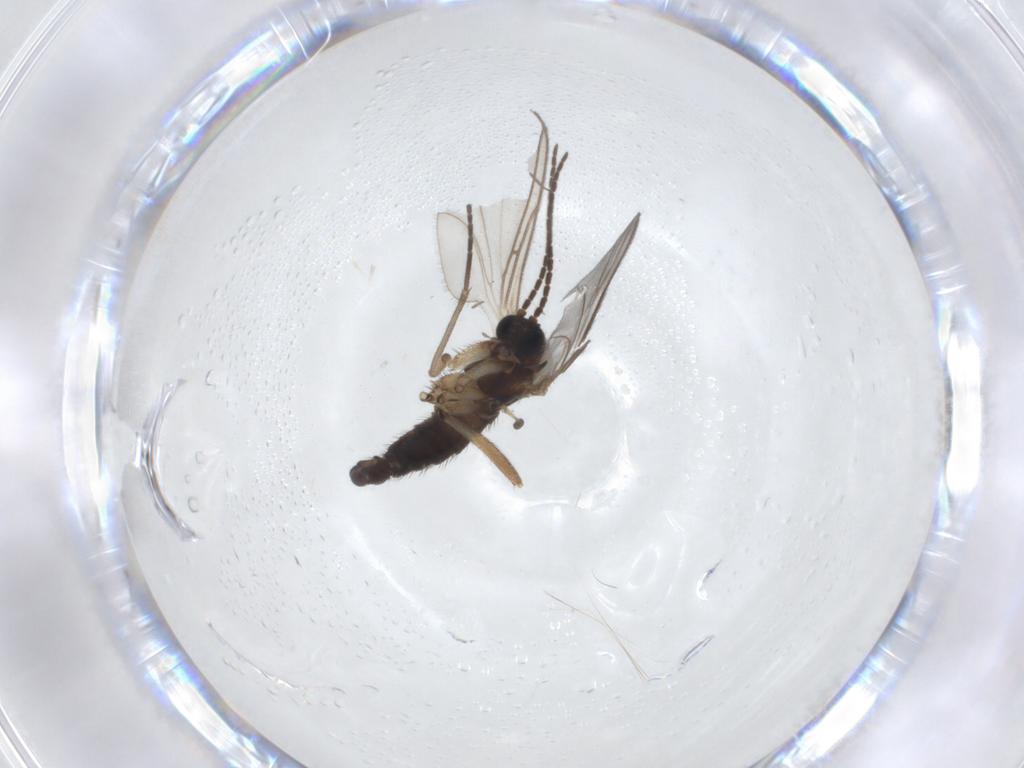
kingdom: Animalia
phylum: Arthropoda
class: Insecta
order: Diptera
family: Sciaridae
